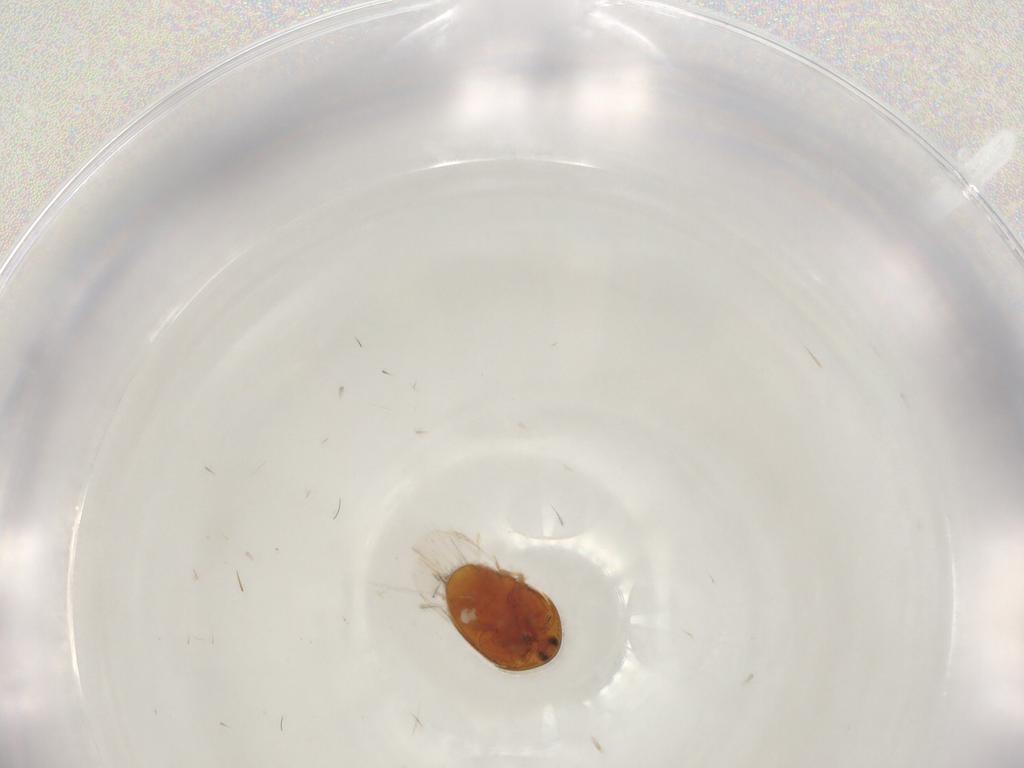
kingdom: Animalia
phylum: Arthropoda
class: Insecta
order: Coleoptera
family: Corylophidae
